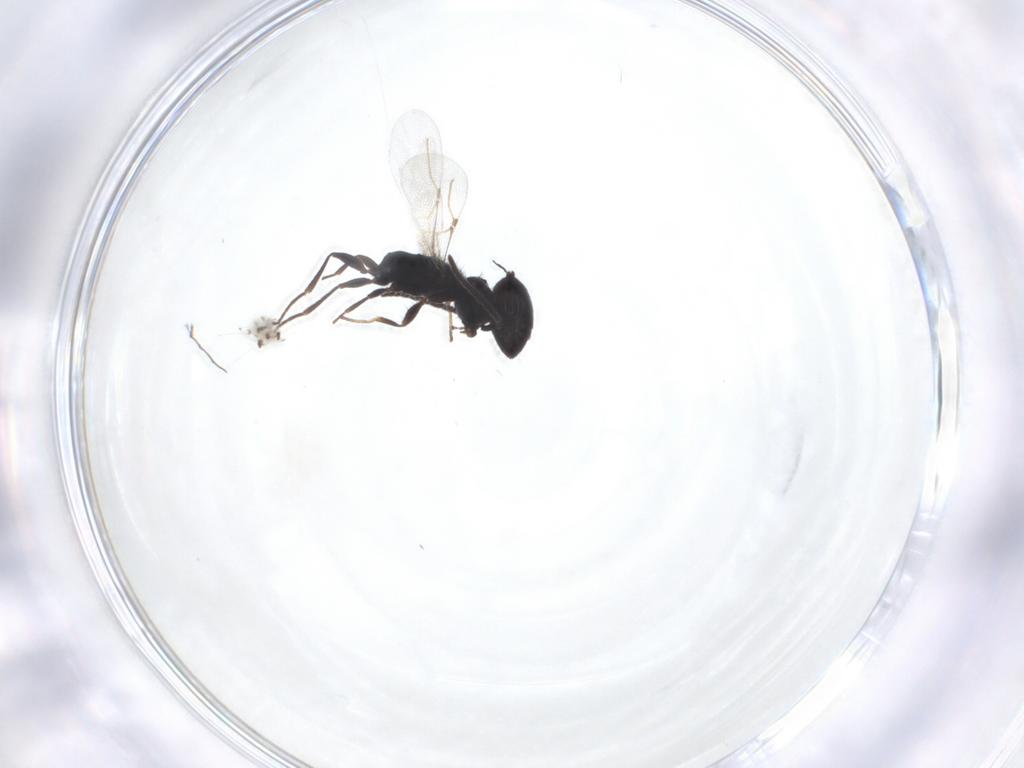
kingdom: Animalia
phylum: Arthropoda
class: Insecta
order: Hymenoptera
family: Bethylidae
